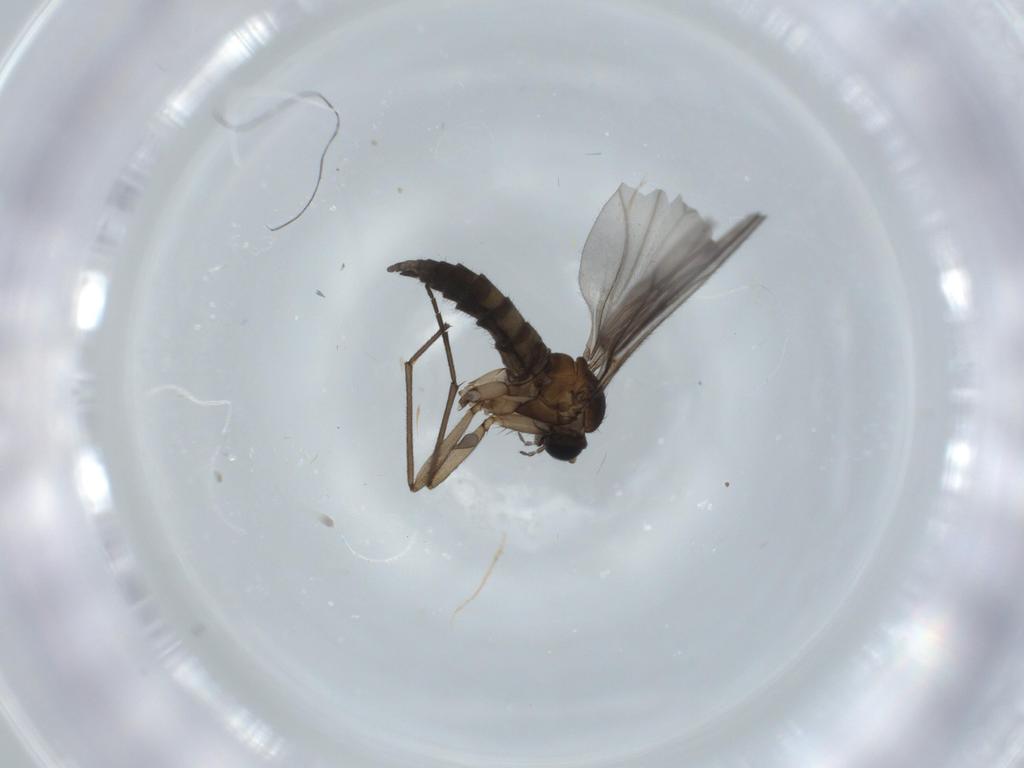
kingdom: Animalia
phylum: Arthropoda
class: Insecta
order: Diptera
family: Sciaridae
